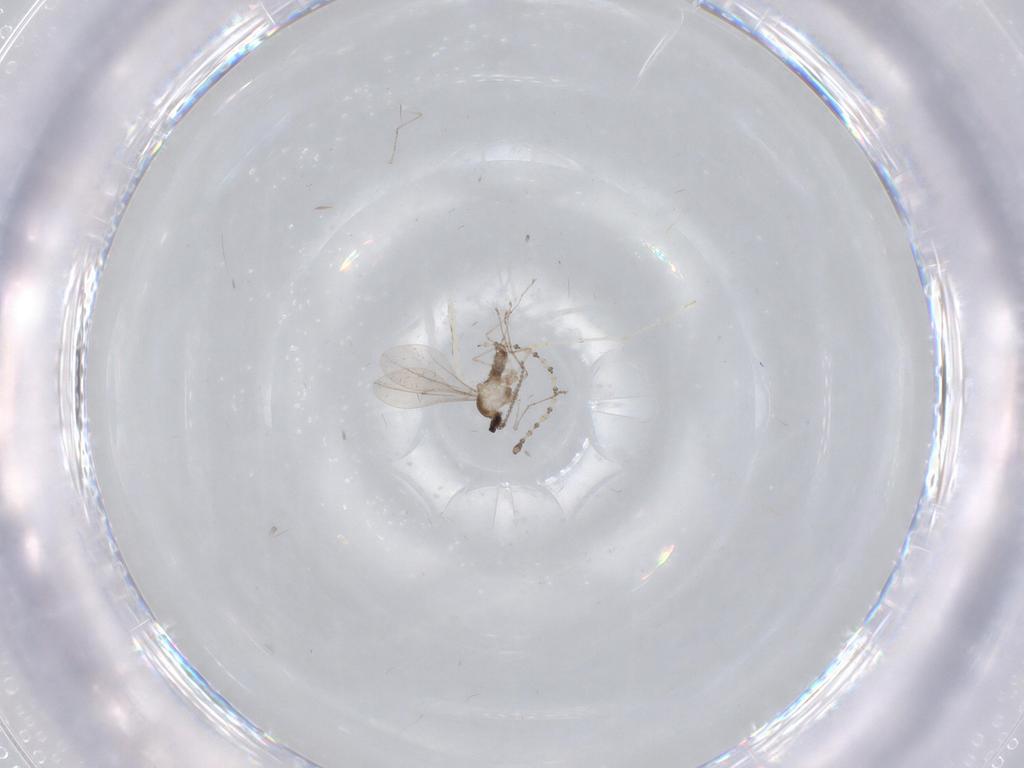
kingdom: Animalia
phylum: Arthropoda
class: Insecta
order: Diptera
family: Cecidomyiidae
